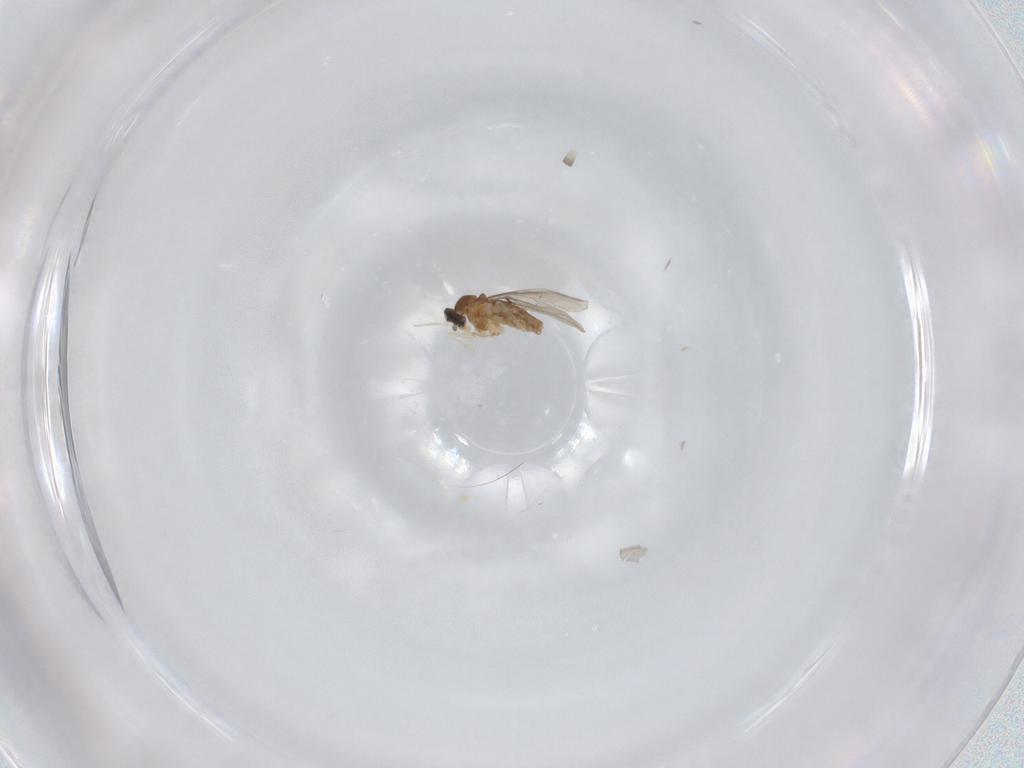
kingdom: Animalia
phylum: Arthropoda
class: Insecta
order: Diptera
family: Cecidomyiidae
